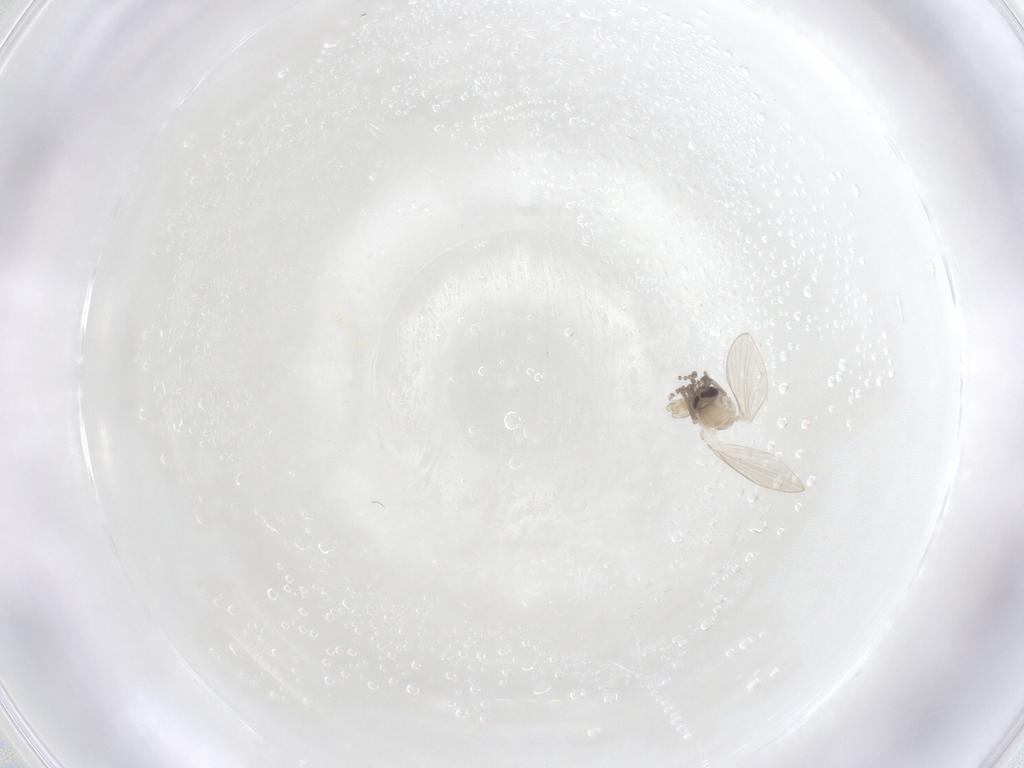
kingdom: Animalia
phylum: Arthropoda
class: Insecta
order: Diptera
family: Psychodidae
